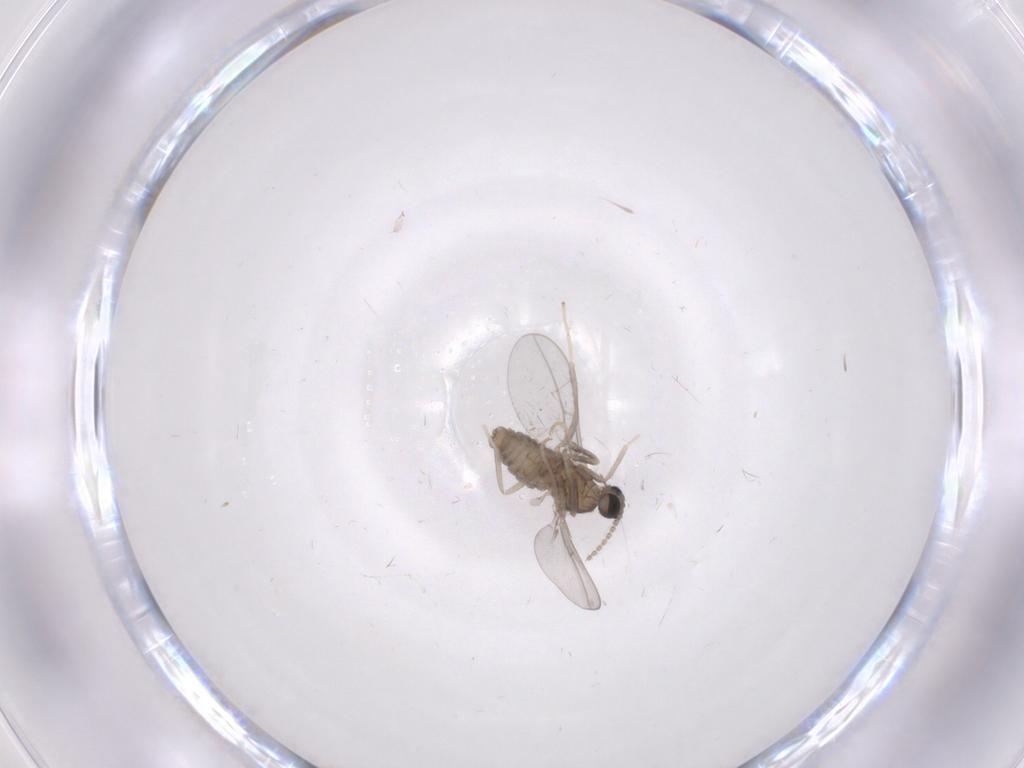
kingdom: Animalia
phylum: Arthropoda
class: Insecta
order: Diptera
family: Cecidomyiidae
